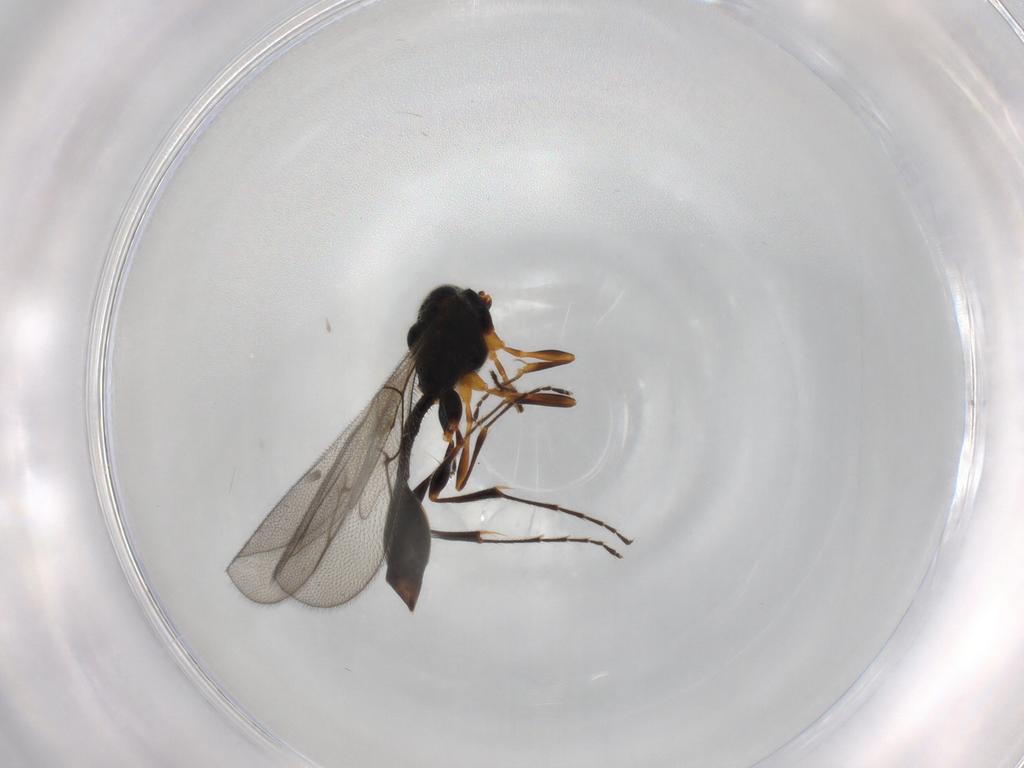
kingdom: Animalia
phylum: Arthropoda
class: Insecta
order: Hymenoptera
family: Diapriidae
